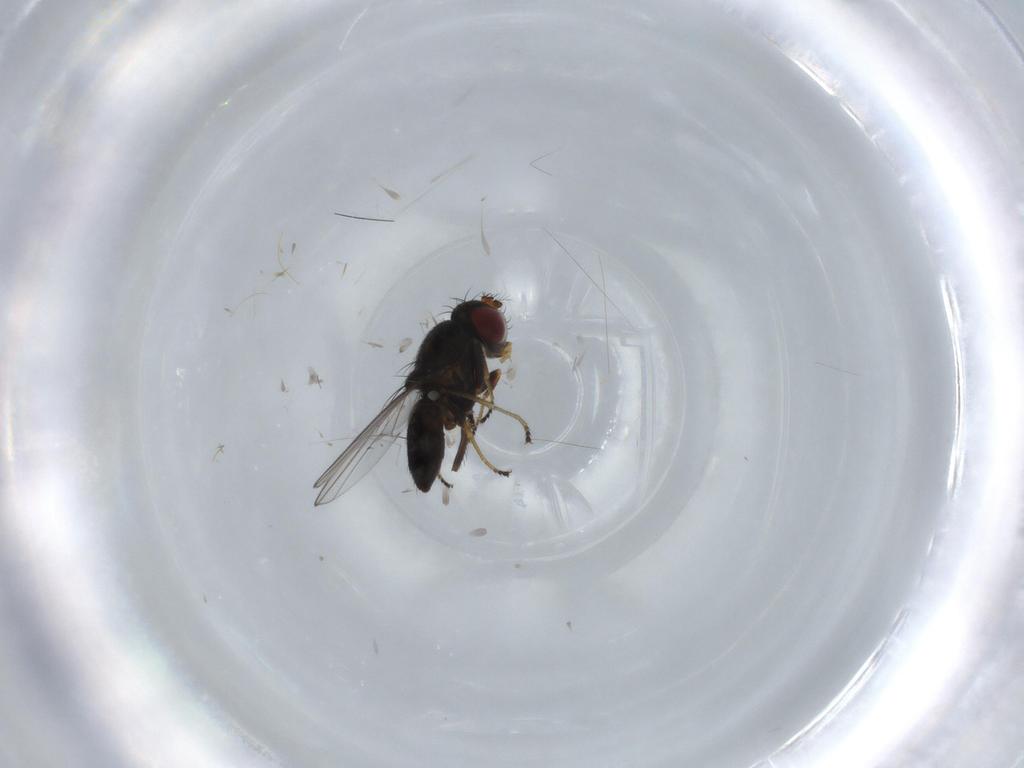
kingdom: Animalia
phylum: Arthropoda
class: Insecta
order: Diptera
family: Ephydridae
